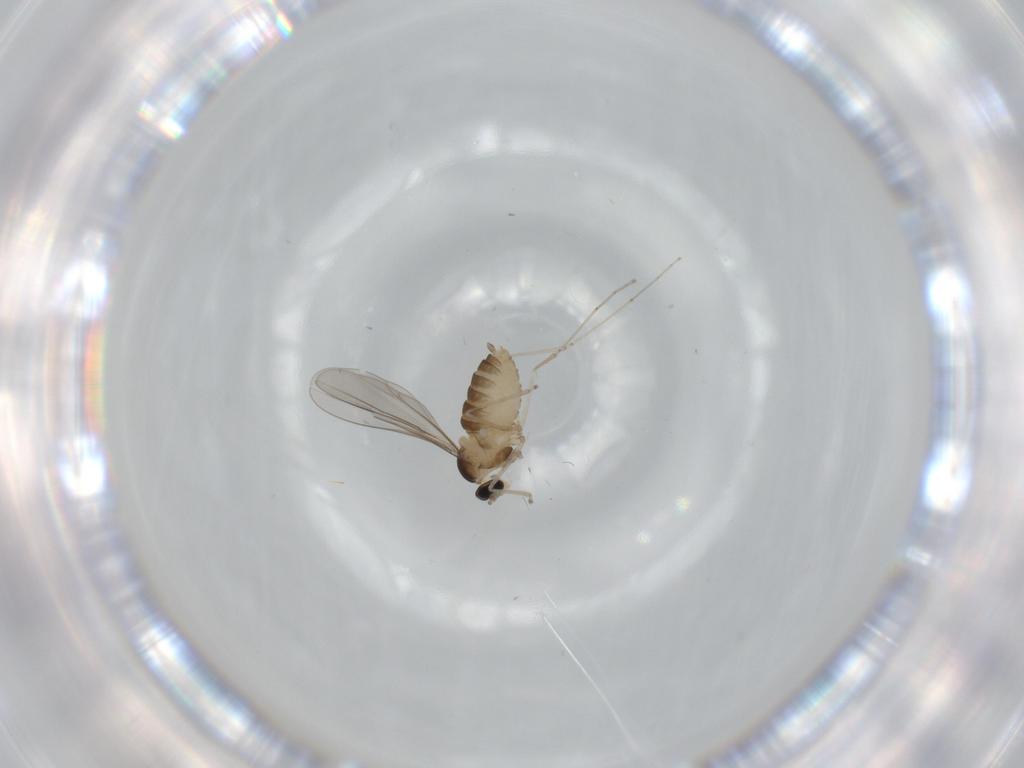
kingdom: Animalia
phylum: Arthropoda
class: Insecta
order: Diptera
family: Cecidomyiidae
